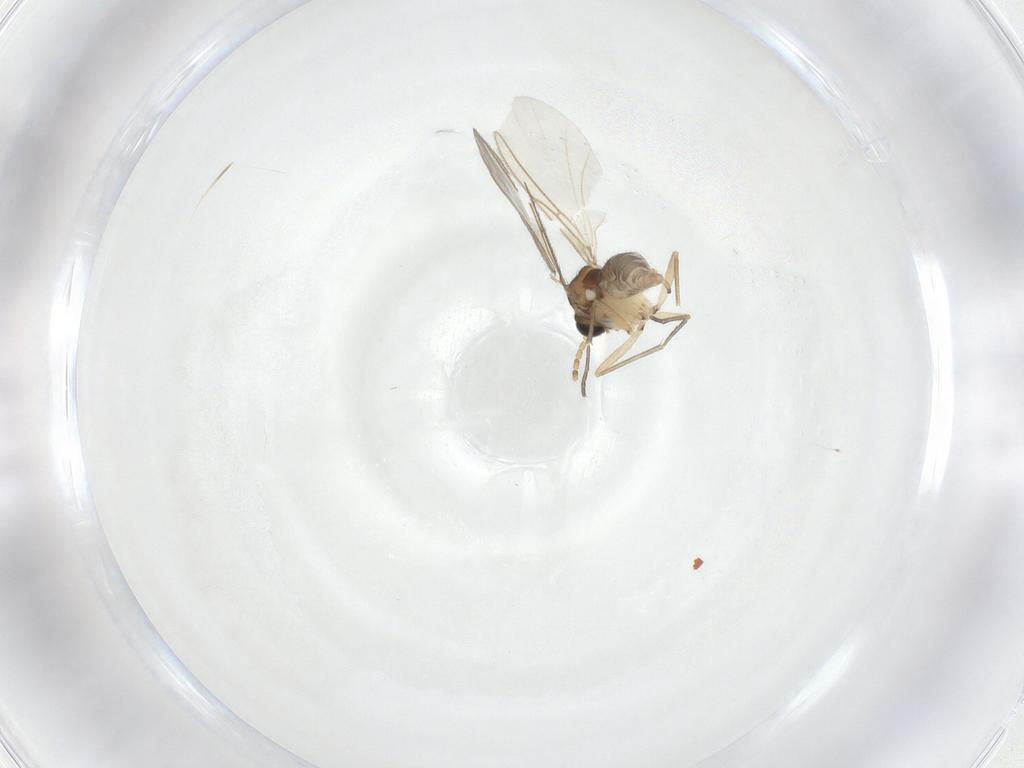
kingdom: Animalia
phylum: Arthropoda
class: Insecta
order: Diptera
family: Sciaridae
